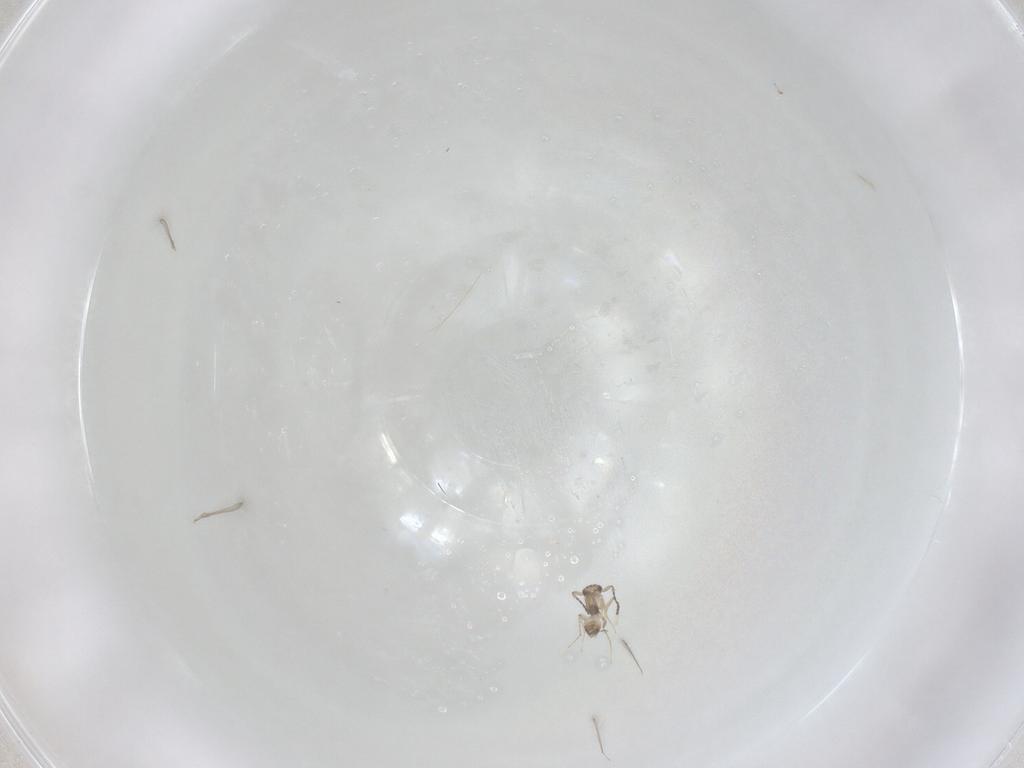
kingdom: Animalia
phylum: Arthropoda
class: Insecta
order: Hymenoptera
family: Mymaridae
